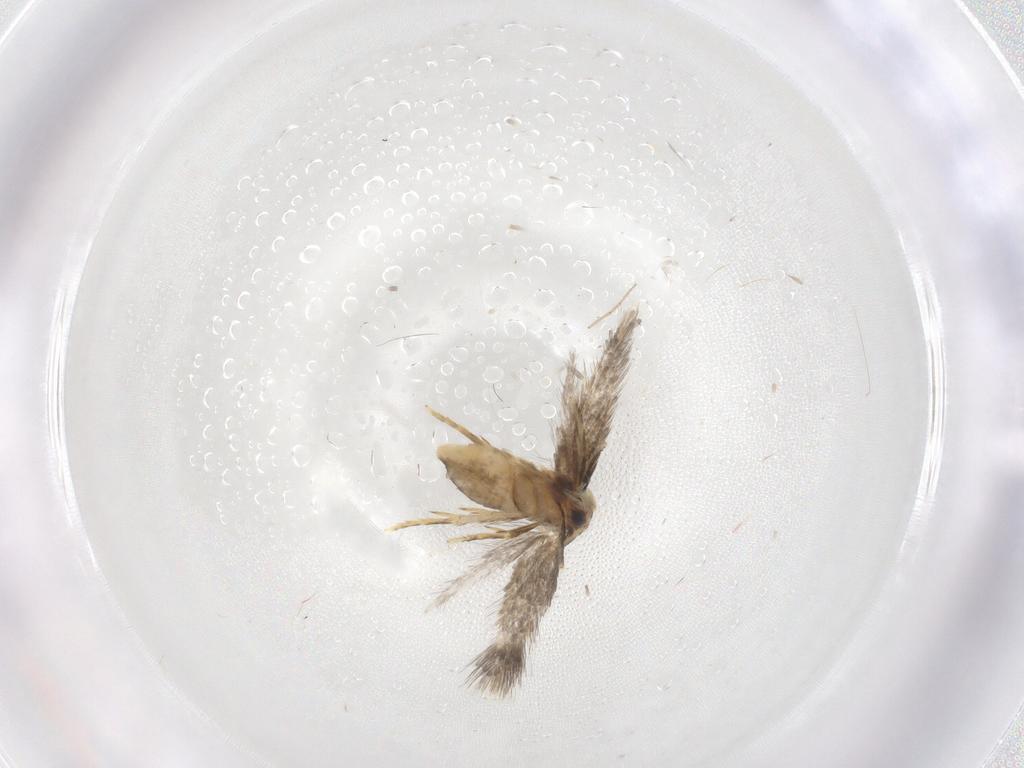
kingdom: Animalia
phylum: Arthropoda
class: Insecta
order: Lepidoptera
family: Nepticulidae
